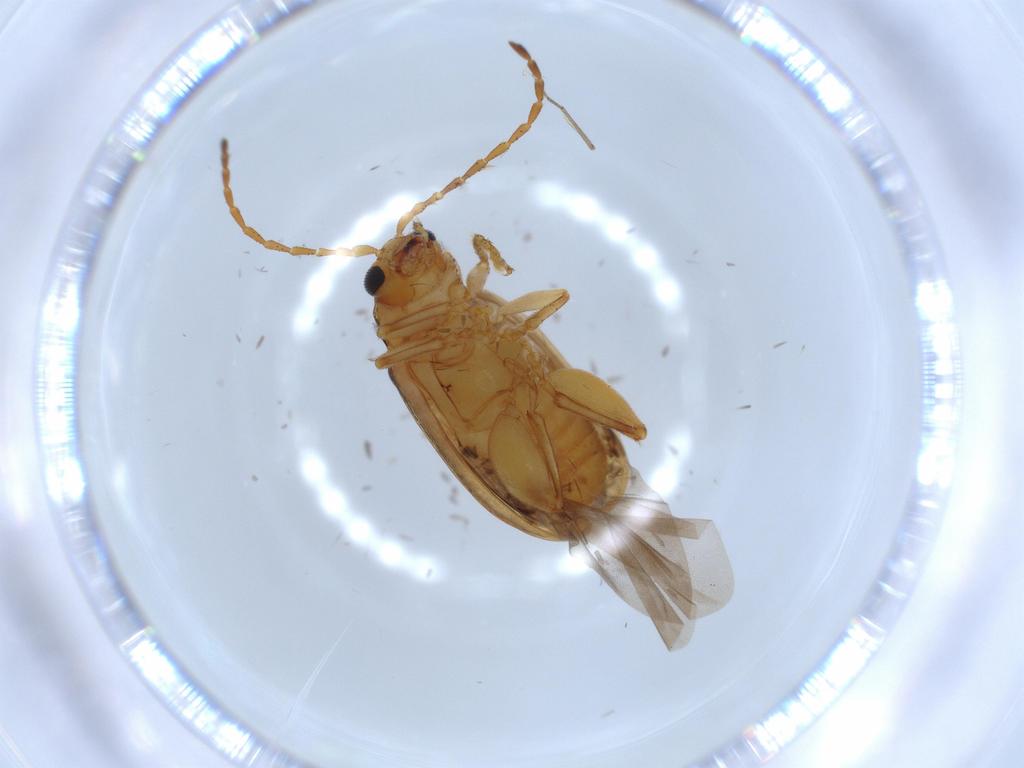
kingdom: Animalia
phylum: Arthropoda
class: Insecta
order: Coleoptera
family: Chrysomelidae
